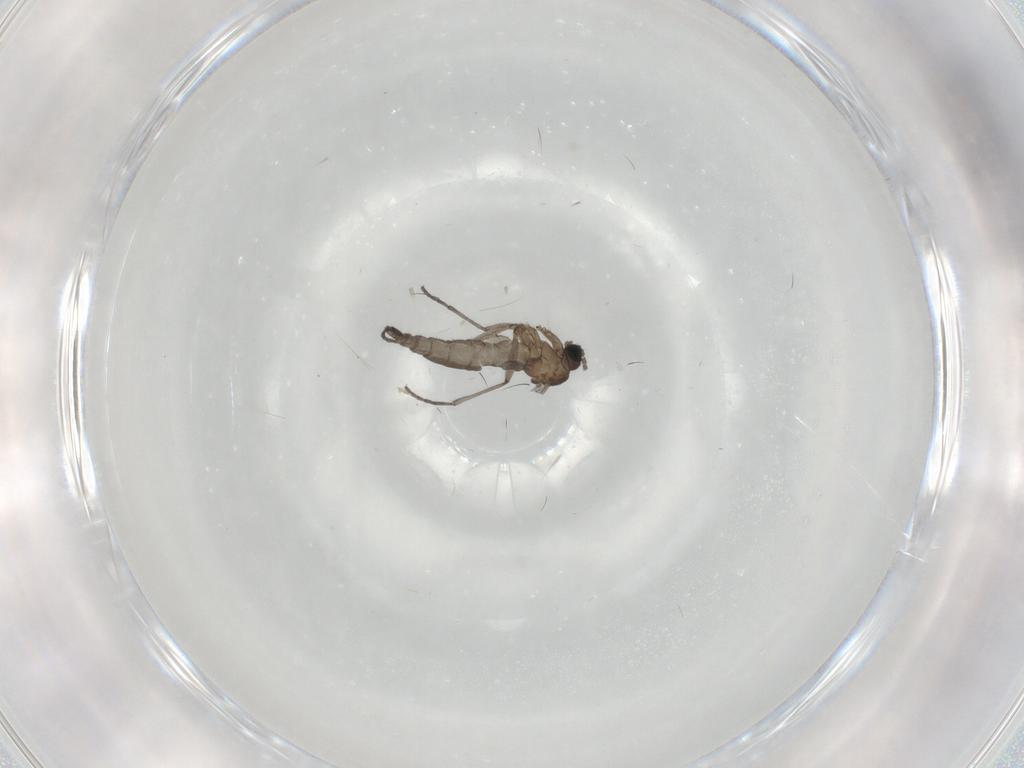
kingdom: Animalia
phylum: Arthropoda
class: Insecta
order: Diptera
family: Sciaridae
